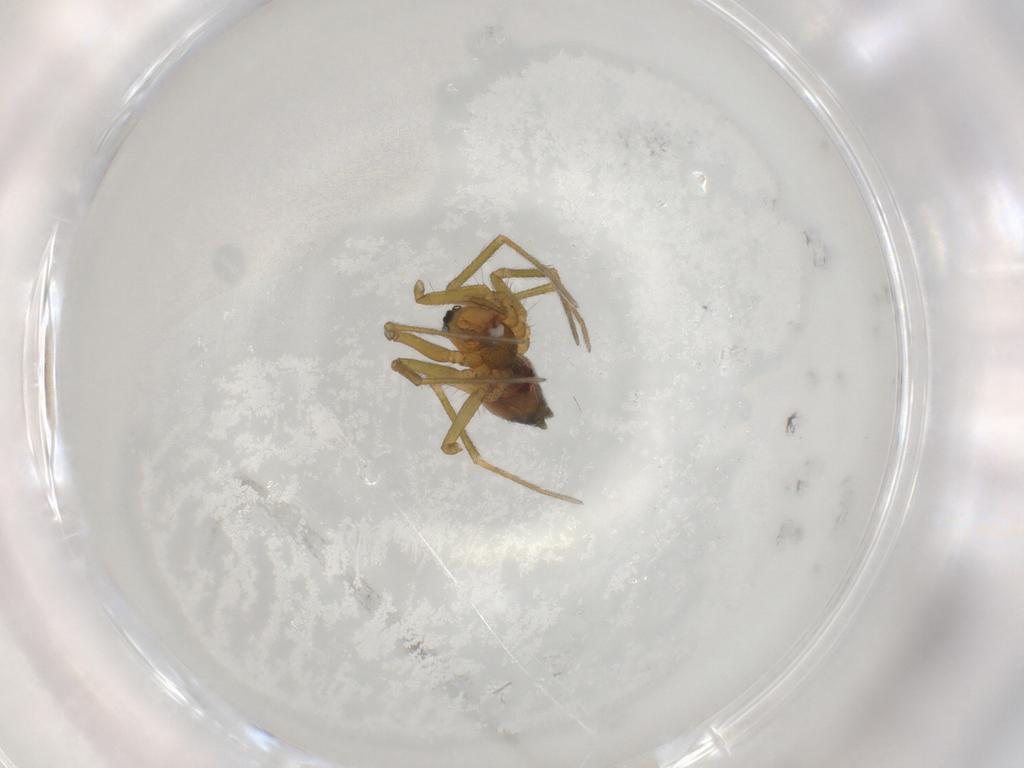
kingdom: Animalia
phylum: Arthropoda
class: Arachnida
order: Araneae
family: Linyphiidae
